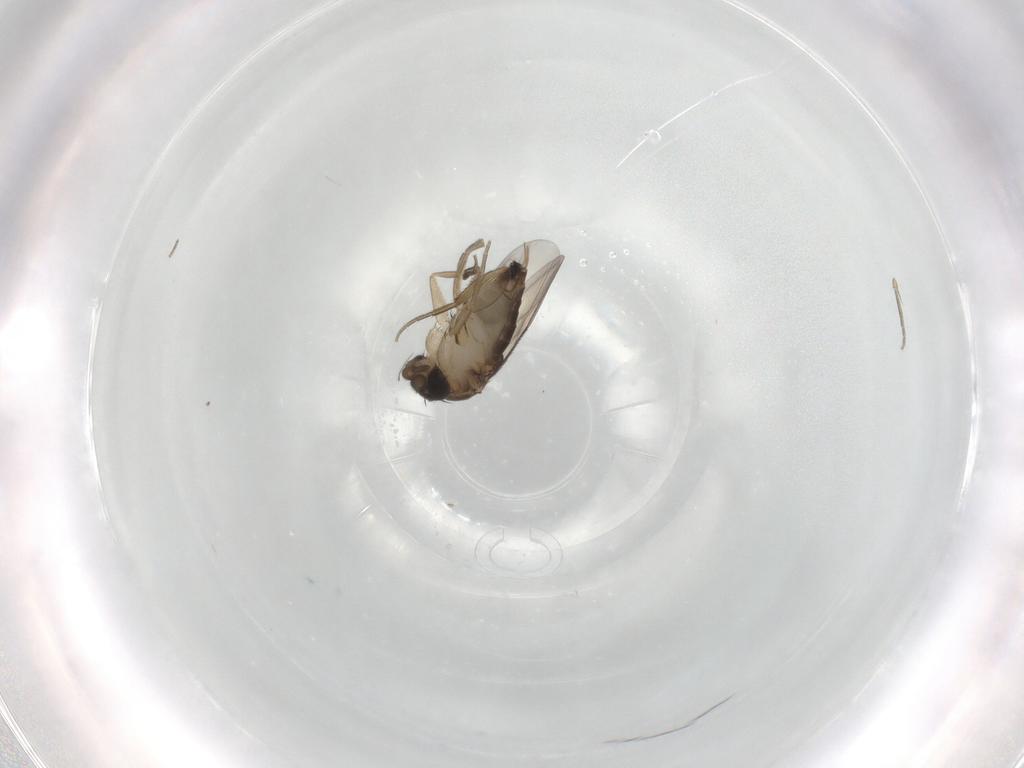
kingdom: Animalia
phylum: Arthropoda
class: Insecta
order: Diptera
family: Phoridae
